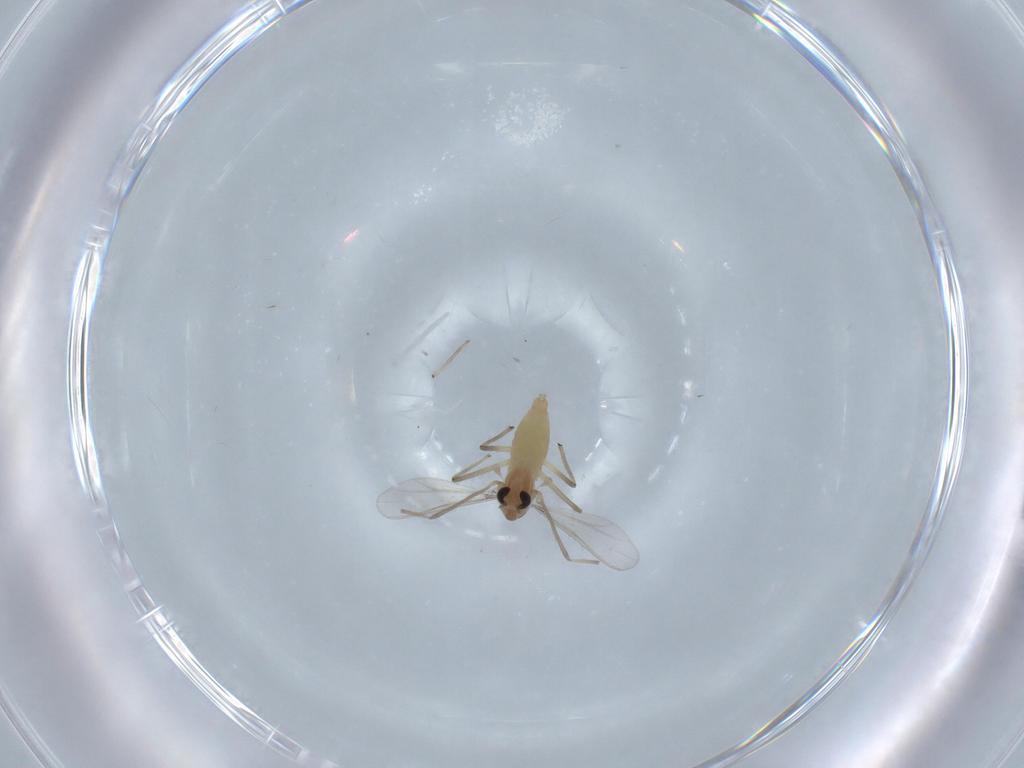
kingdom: Animalia
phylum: Arthropoda
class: Insecta
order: Diptera
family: Chironomidae
